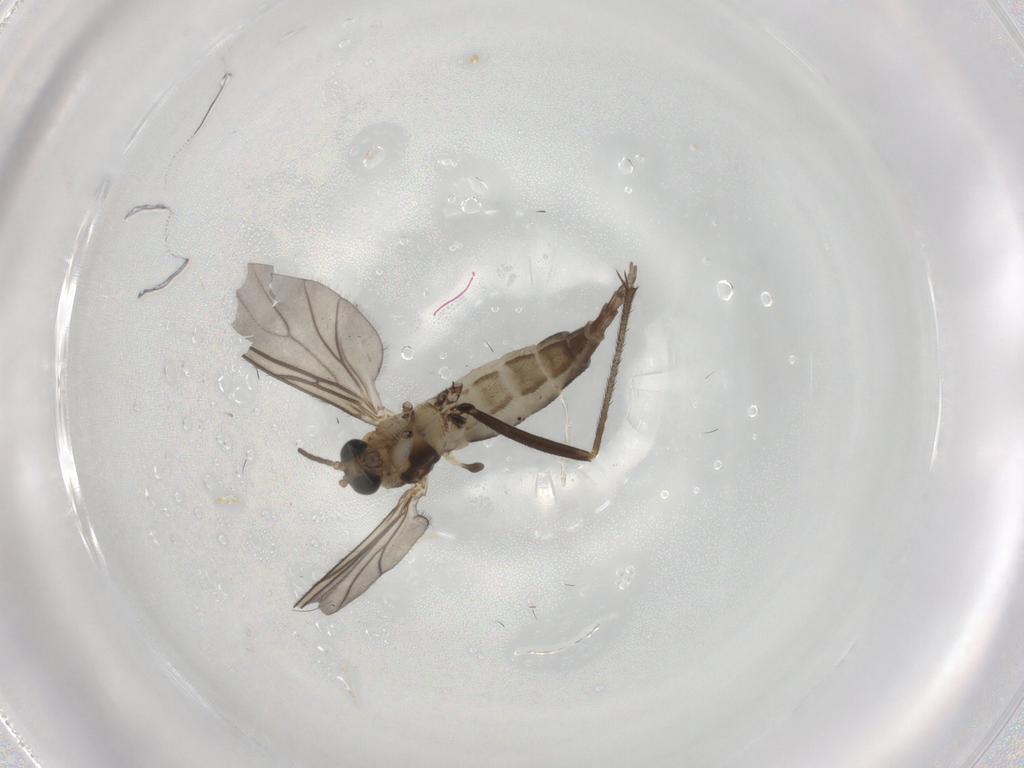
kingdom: Animalia
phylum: Arthropoda
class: Insecta
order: Diptera
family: Sciaridae
